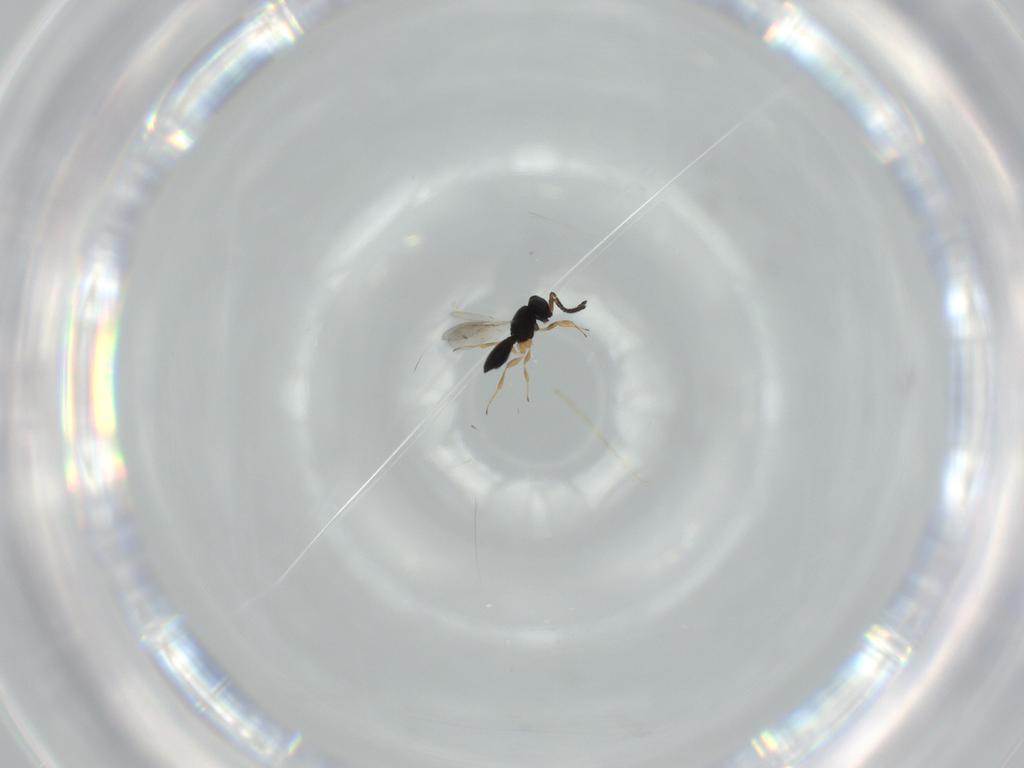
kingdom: Animalia
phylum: Arthropoda
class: Insecta
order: Hymenoptera
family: Scelionidae
